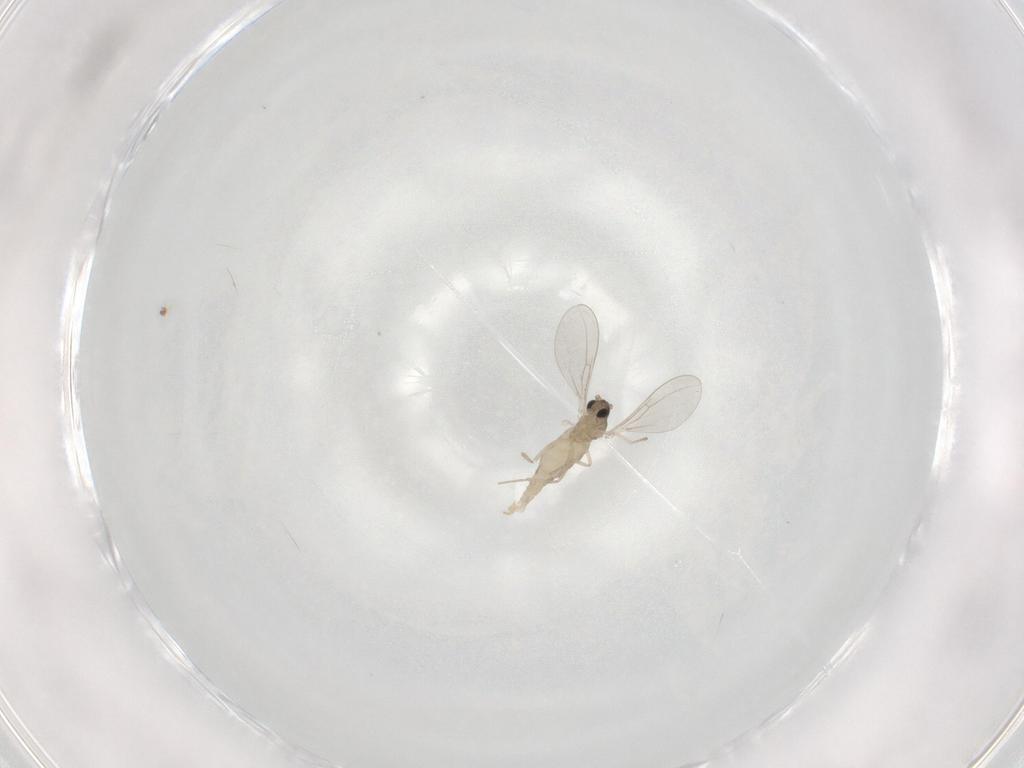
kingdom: Animalia
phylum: Arthropoda
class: Insecta
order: Diptera
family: Cecidomyiidae
